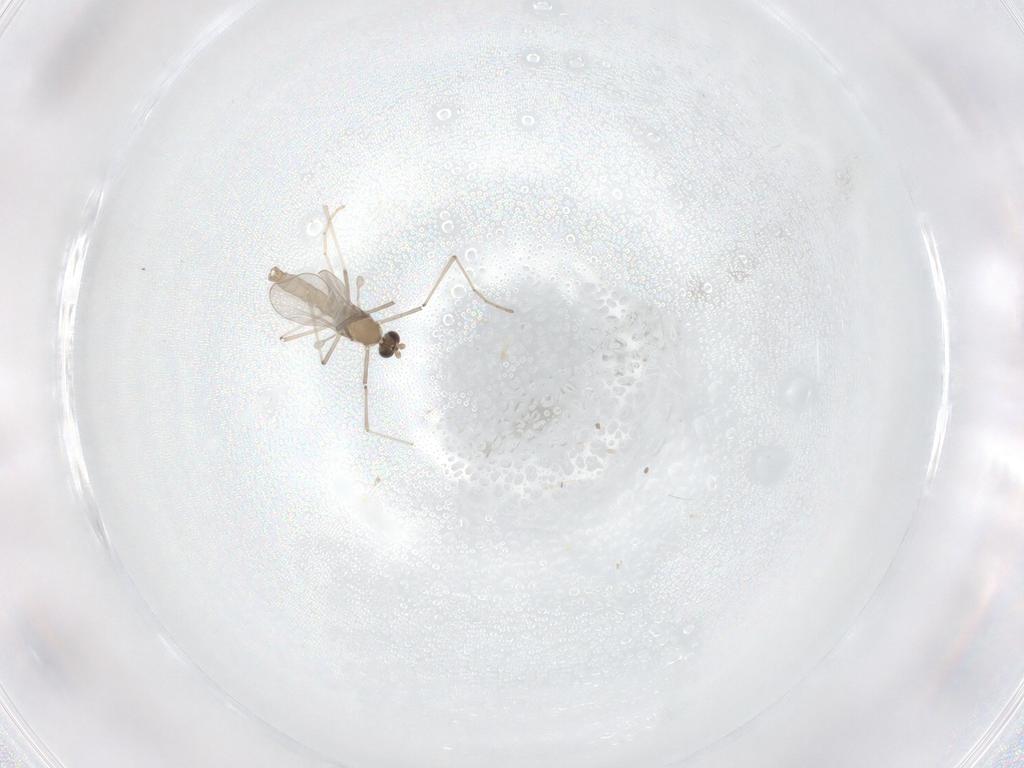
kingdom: Animalia
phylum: Arthropoda
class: Insecta
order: Diptera
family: Cecidomyiidae
